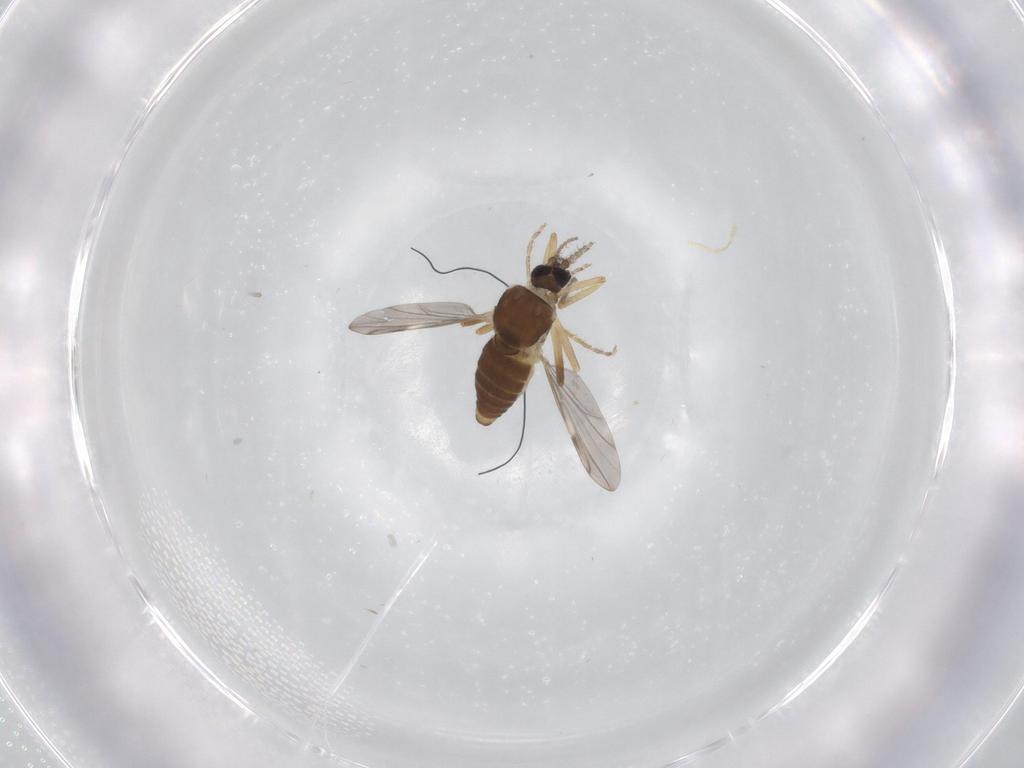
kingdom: Animalia
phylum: Arthropoda
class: Insecta
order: Diptera
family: Ceratopogonidae
